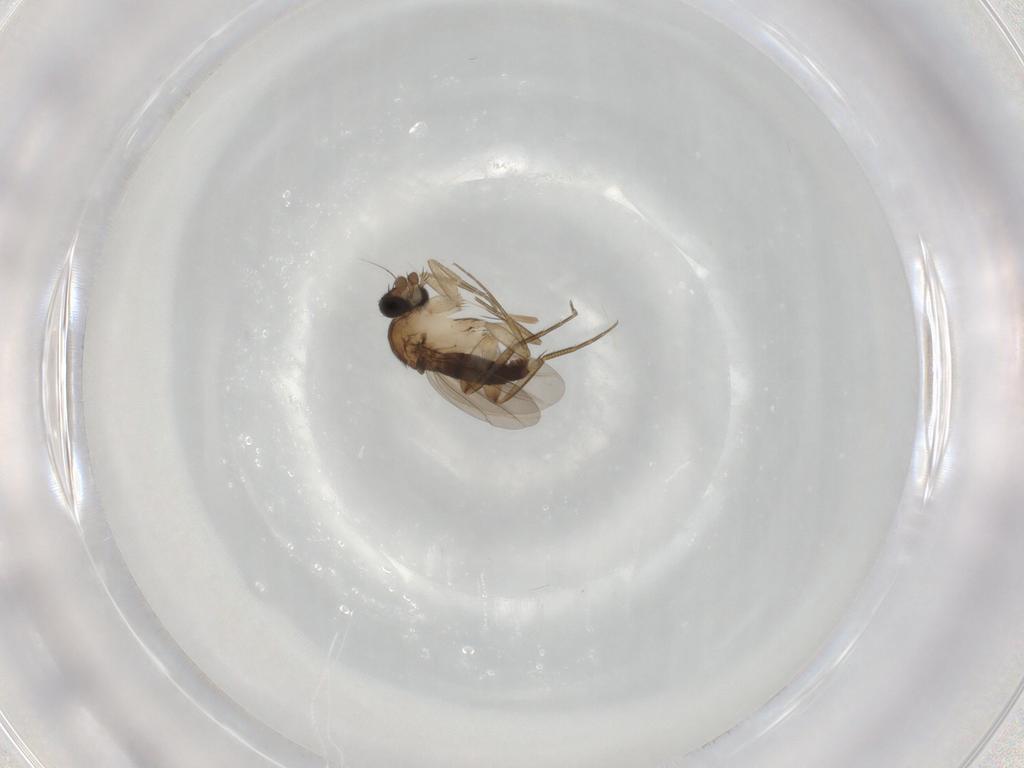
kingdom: Animalia
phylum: Arthropoda
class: Insecta
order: Diptera
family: Phoridae
